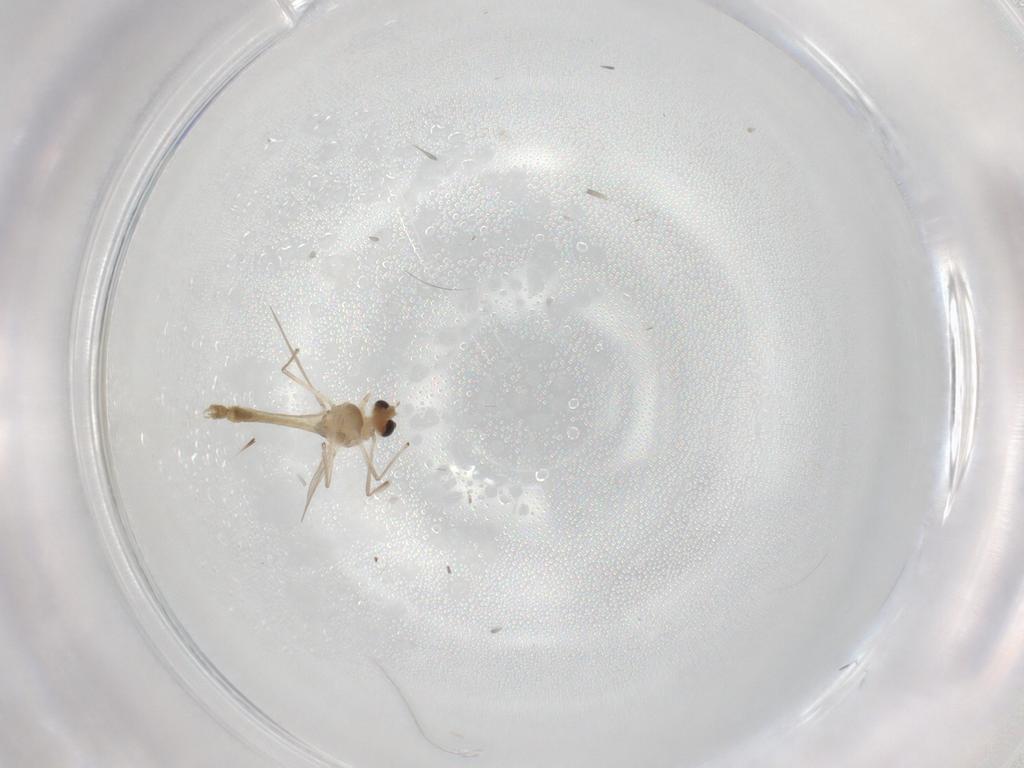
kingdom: Animalia
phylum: Arthropoda
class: Insecta
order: Diptera
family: Chironomidae
